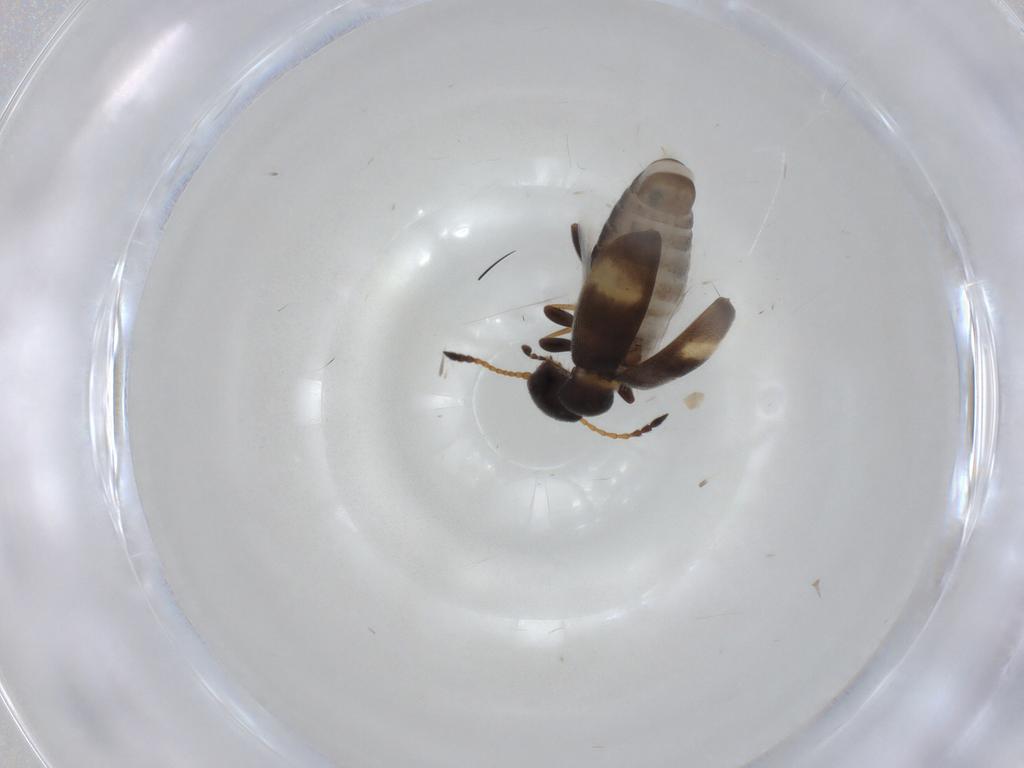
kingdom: Animalia
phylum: Arthropoda
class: Insecta
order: Coleoptera
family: Anthicidae
